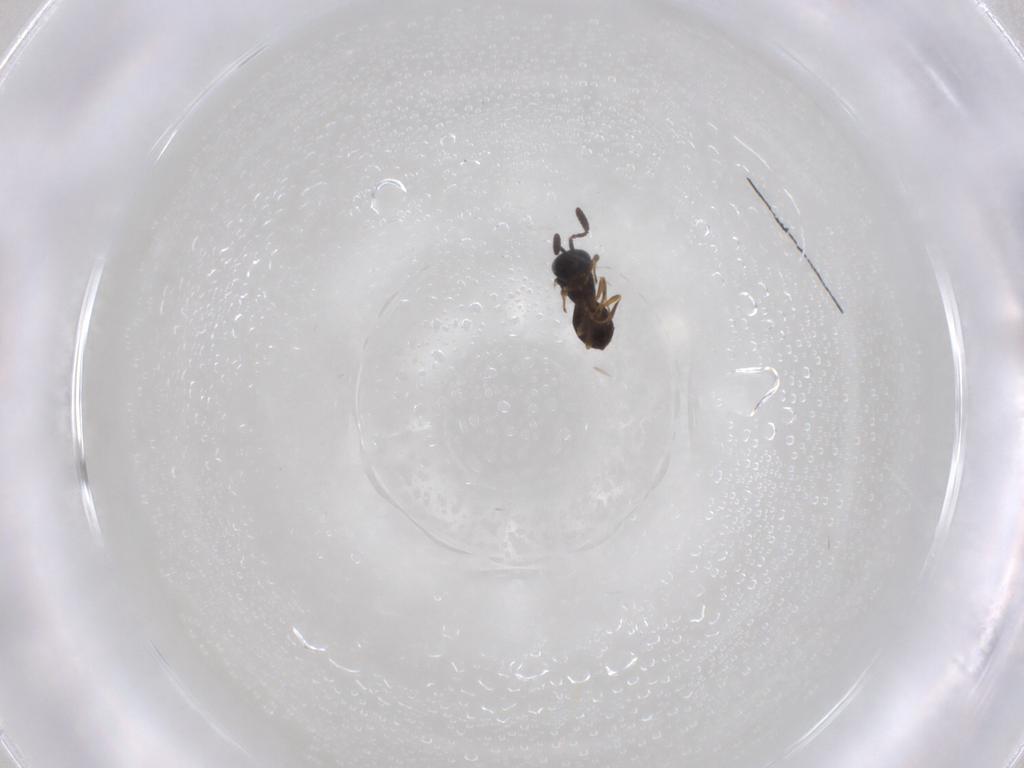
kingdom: Animalia
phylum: Arthropoda
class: Insecta
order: Hymenoptera
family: Scelionidae
